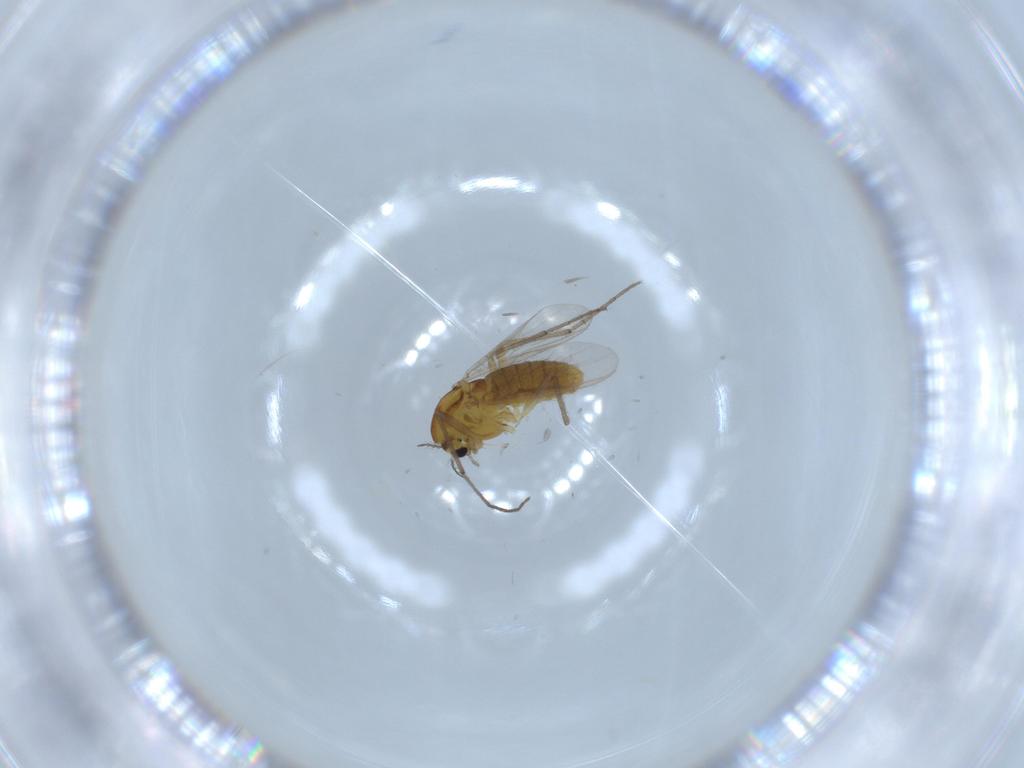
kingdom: Animalia
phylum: Arthropoda
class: Insecta
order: Diptera
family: Chironomidae
